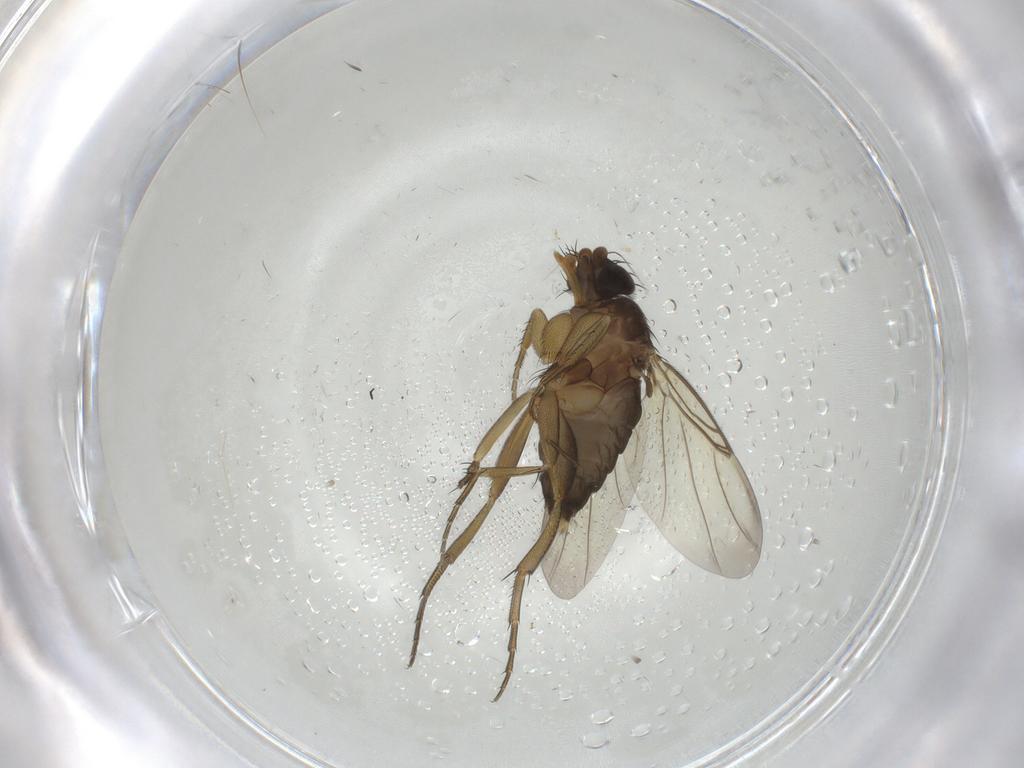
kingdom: Animalia
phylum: Arthropoda
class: Insecta
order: Diptera
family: Phoridae
